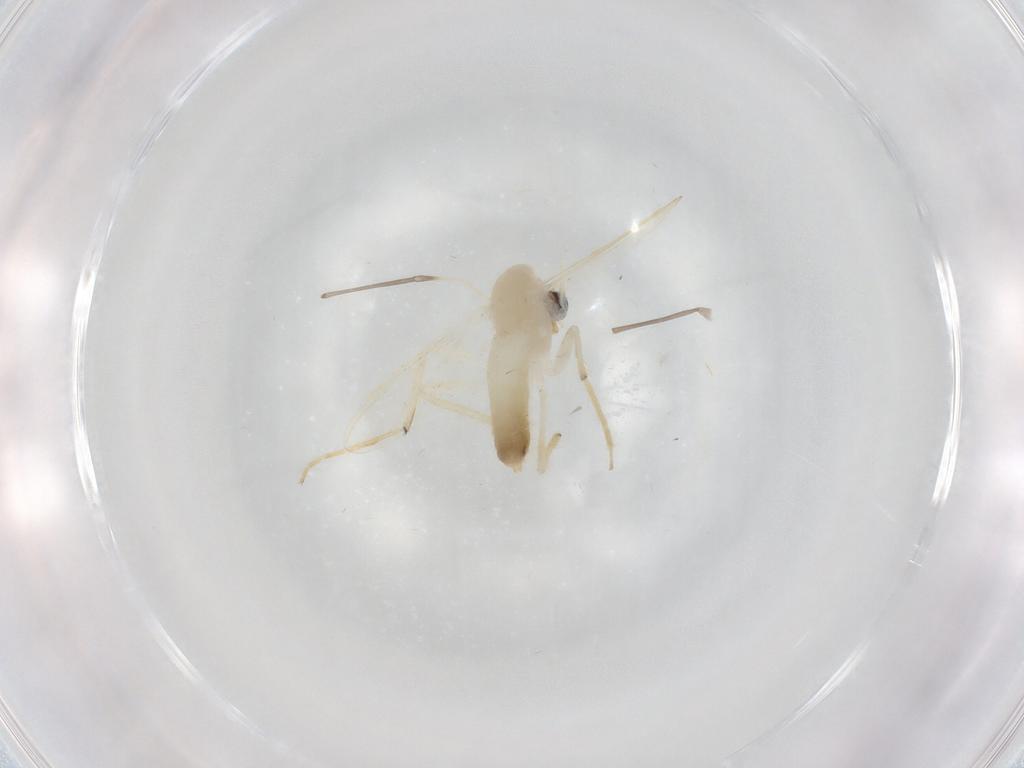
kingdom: Animalia
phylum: Arthropoda
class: Insecta
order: Diptera
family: Chironomidae
